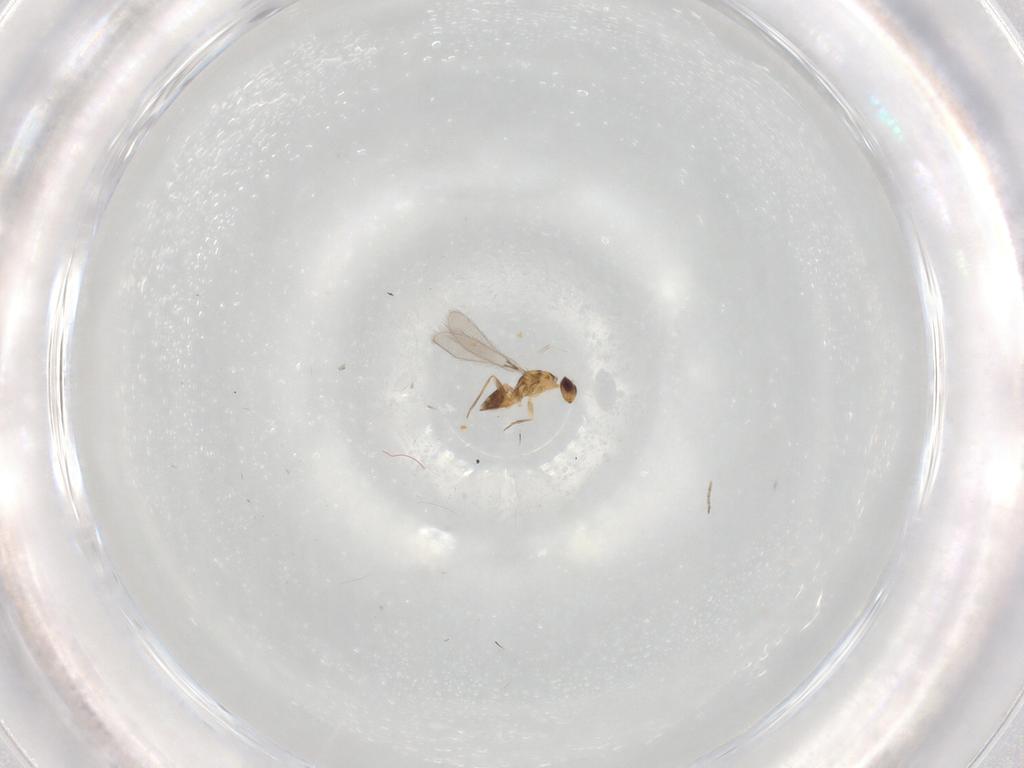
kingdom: Animalia
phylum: Arthropoda
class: Insecta
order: Hymenoptera
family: Mymaridae
